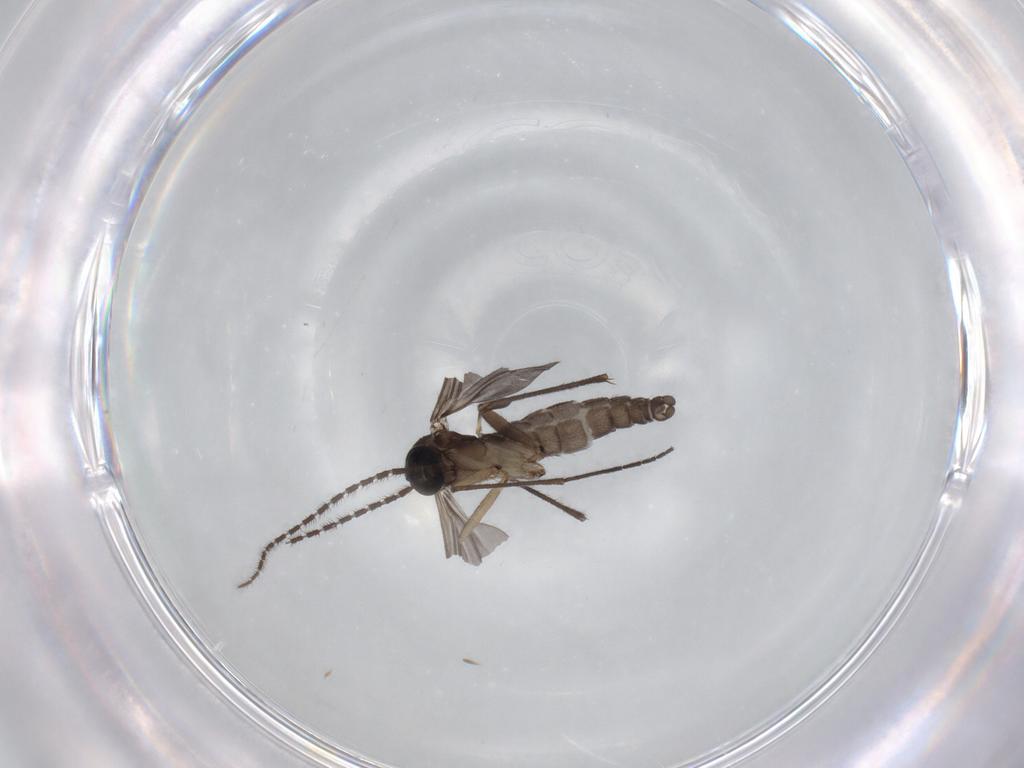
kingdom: Animalia
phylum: Arthropoda
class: Insecta
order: Diptera
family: Sciaridae
